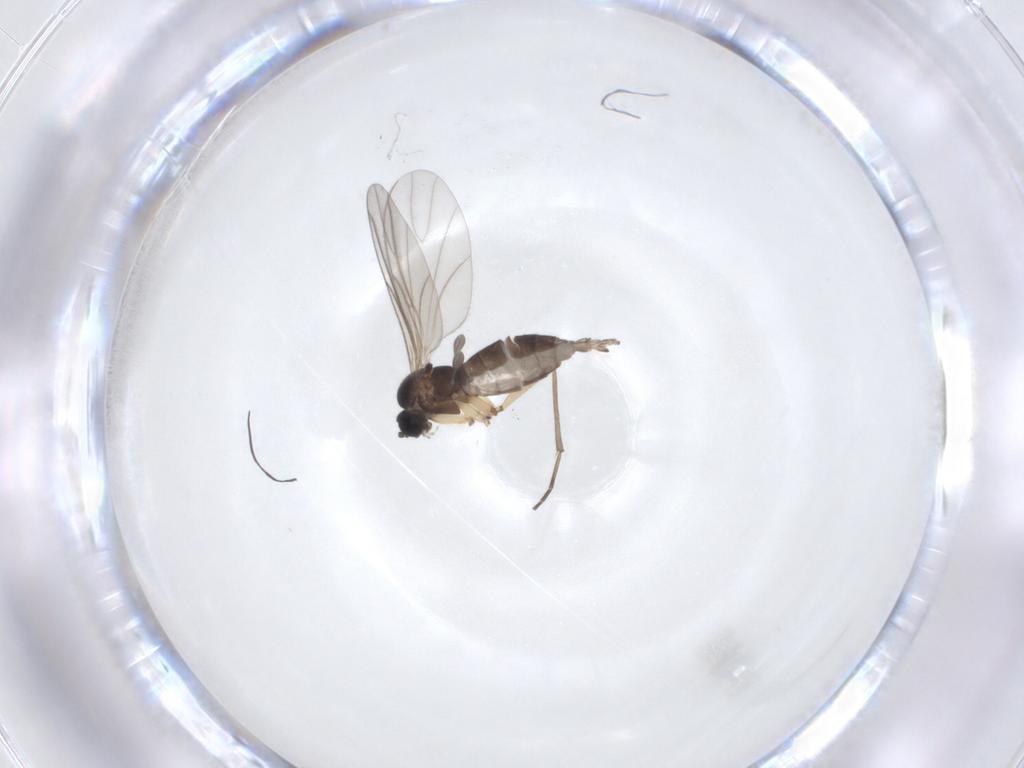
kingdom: Animalia
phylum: Arthropoda
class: Insecta
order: Diptera
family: Sciaridae
